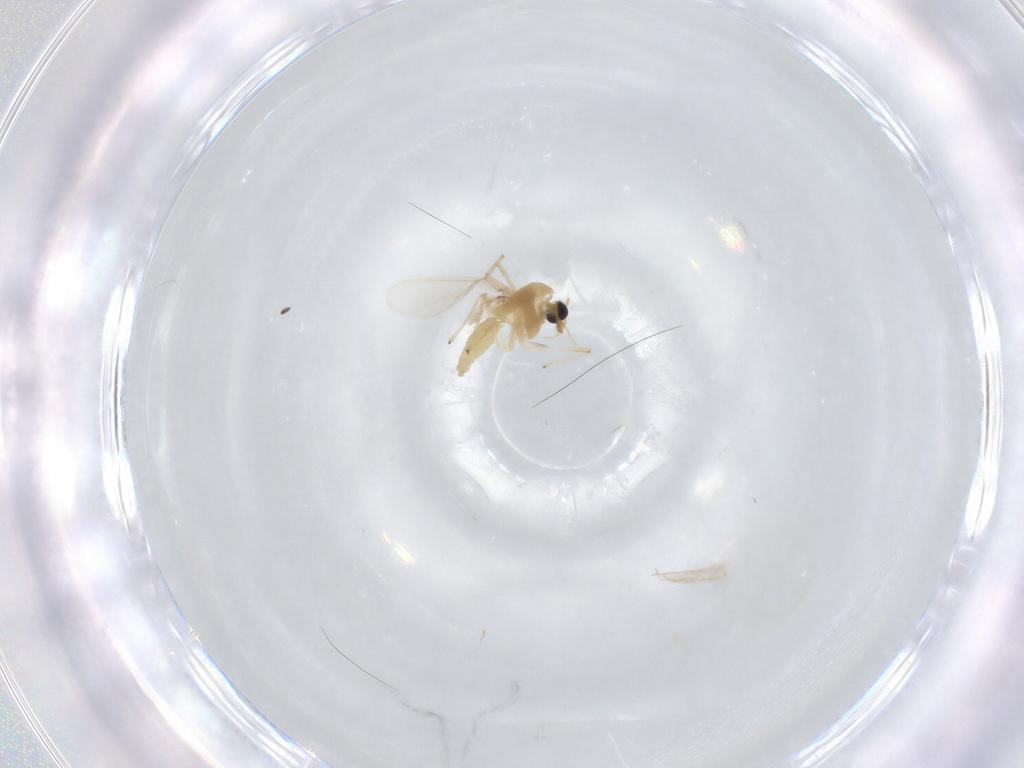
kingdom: Animalia
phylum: Arthropoda
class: Insecta
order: Diptera
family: Chironomidae
